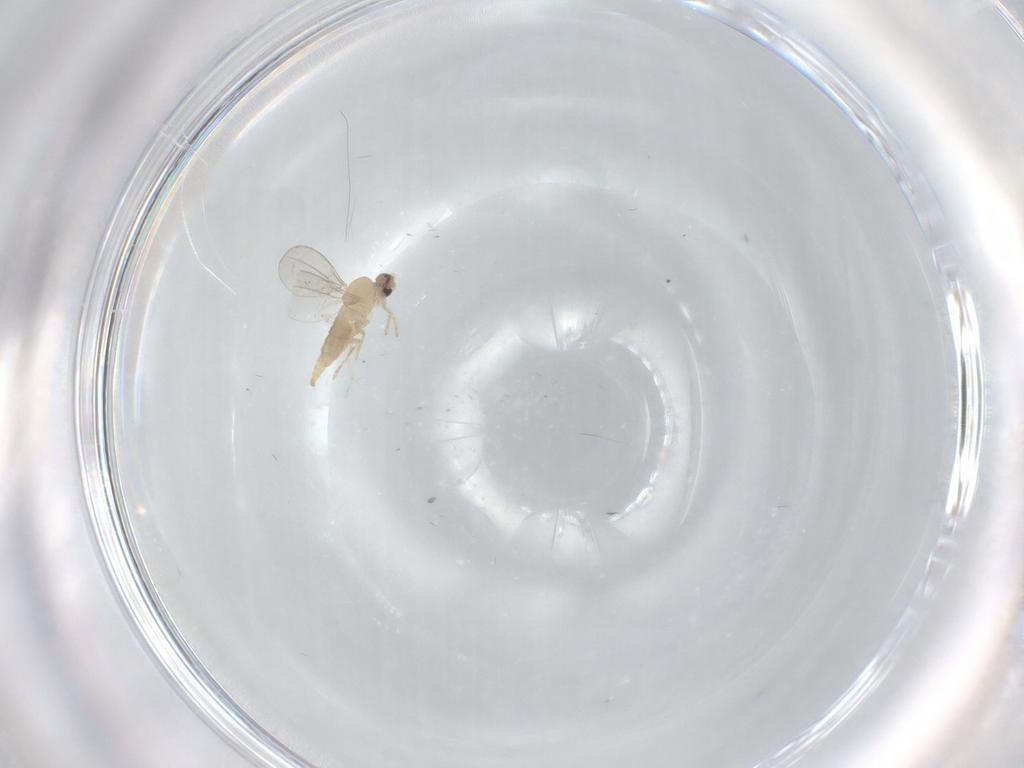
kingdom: Animalia
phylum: Arthropoda
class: Insecta
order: Diptera
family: Cecidomyiidae
